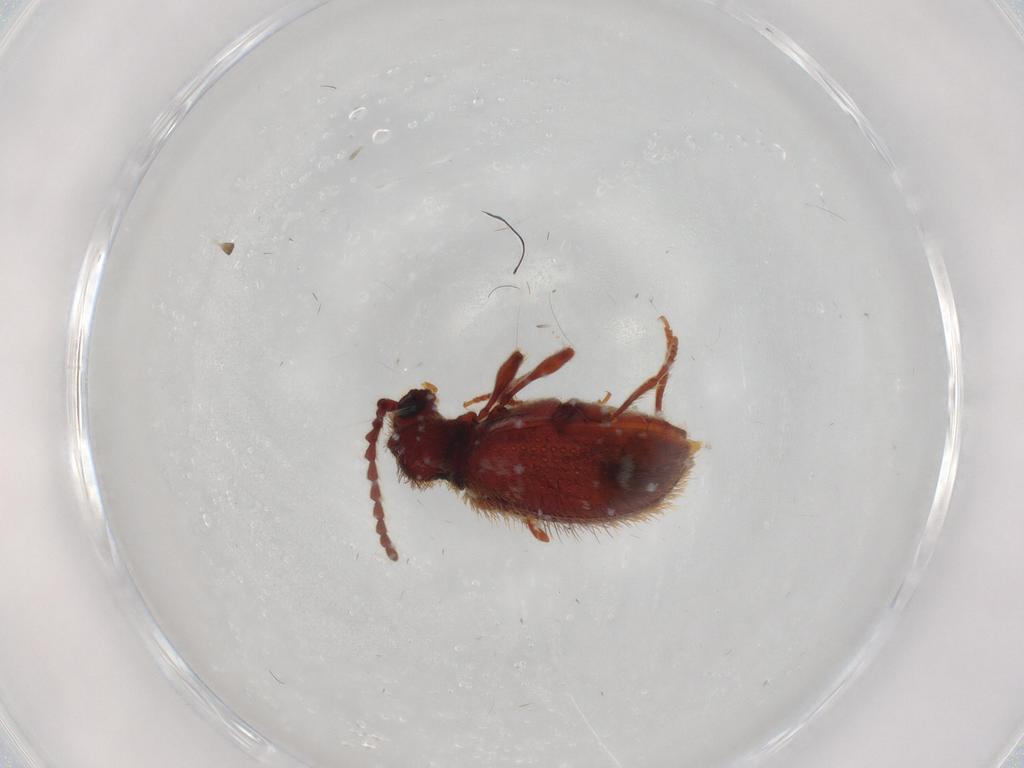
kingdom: Animalia
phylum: Arthropoda
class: Insecta
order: Coleoptera
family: Ptinidae
